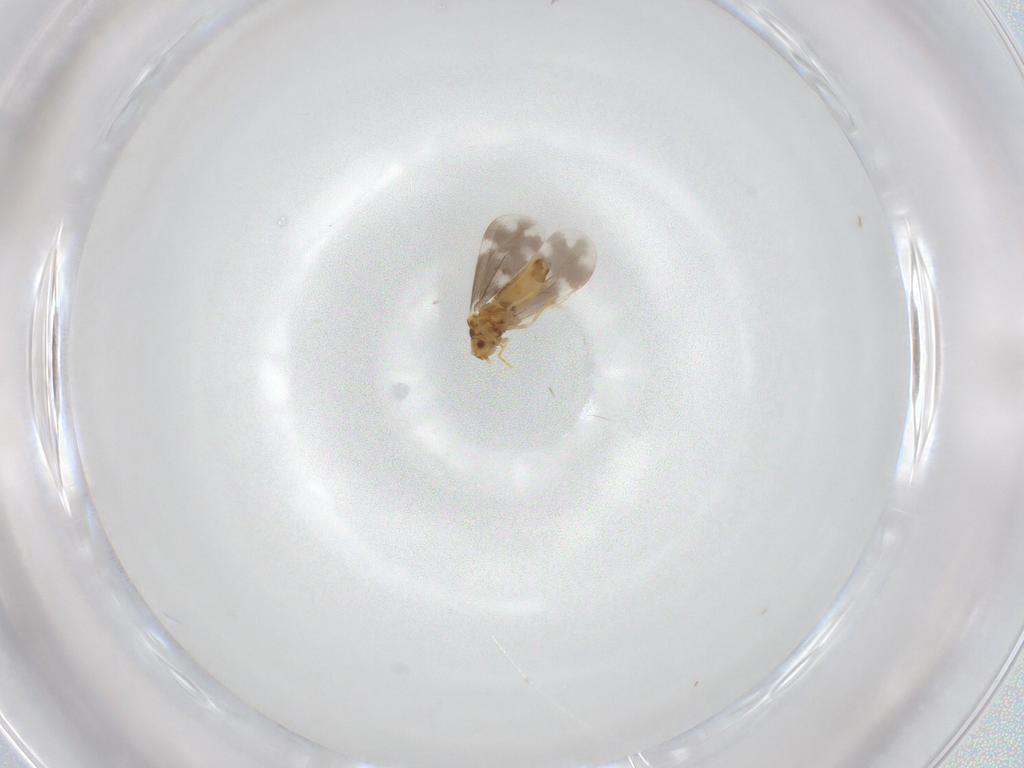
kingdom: Animalia
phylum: Arthropoda
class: Insecta
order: Hemiptera
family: Aleyrodidae
